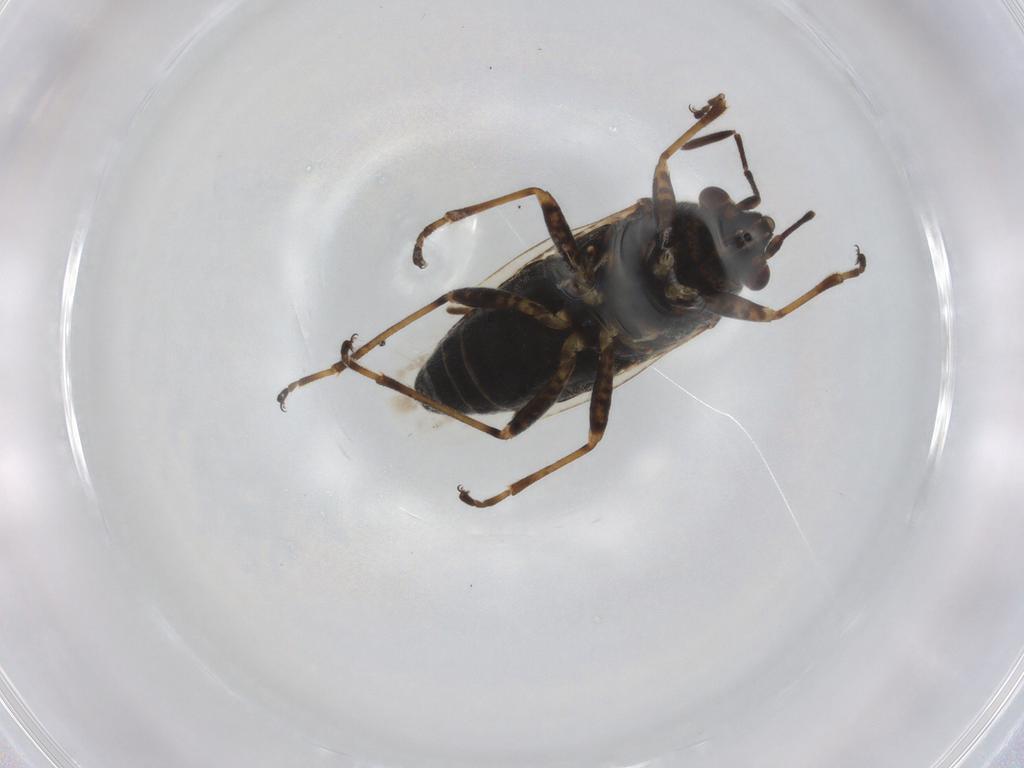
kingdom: Animalia
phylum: Arthropoda
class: Insecta
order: Hemiptera
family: Lygaeidae
